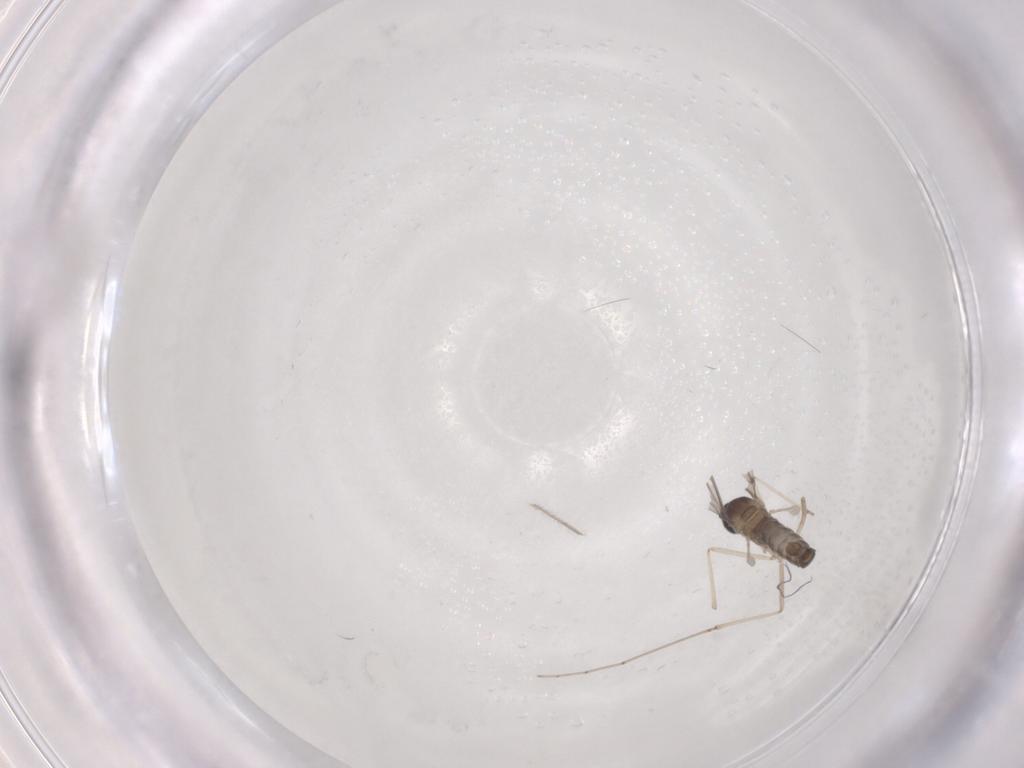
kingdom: Animalia
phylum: Arthropoda
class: Insecta
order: Diptera
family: Cecidomyiidae
